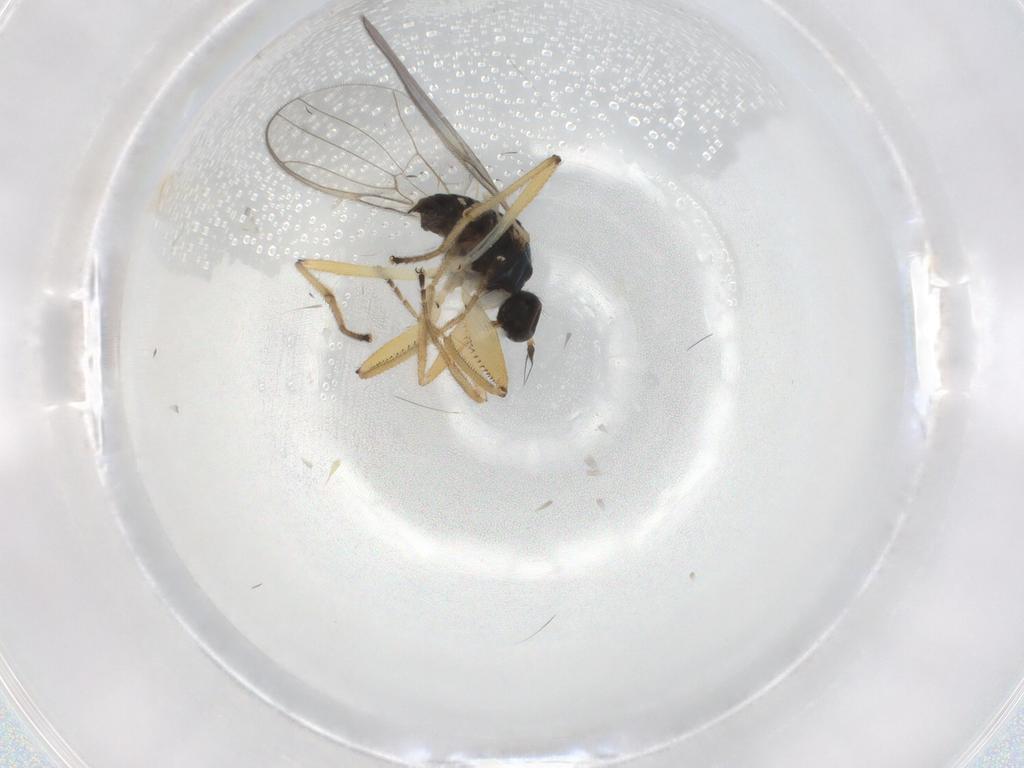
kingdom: Animalia
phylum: Arthropoda
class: Insecta
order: Diptera
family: Hybotidae
